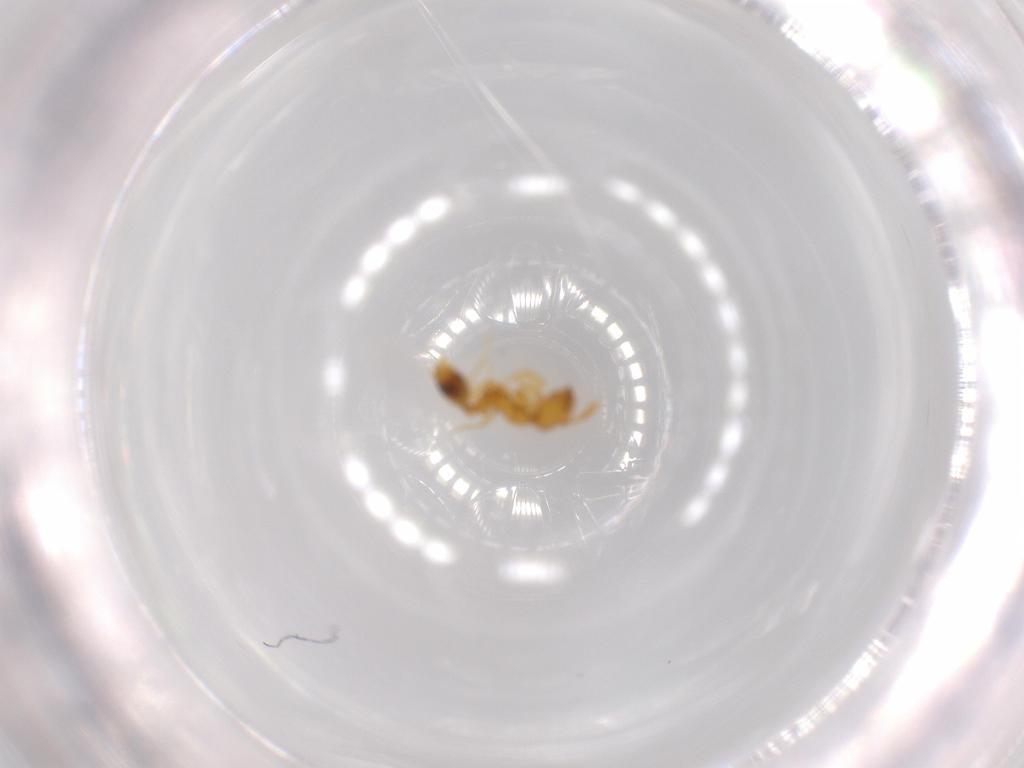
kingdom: Animalia
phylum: Arthropoda
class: Insecta
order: Hymenoptera
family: Formicidae
